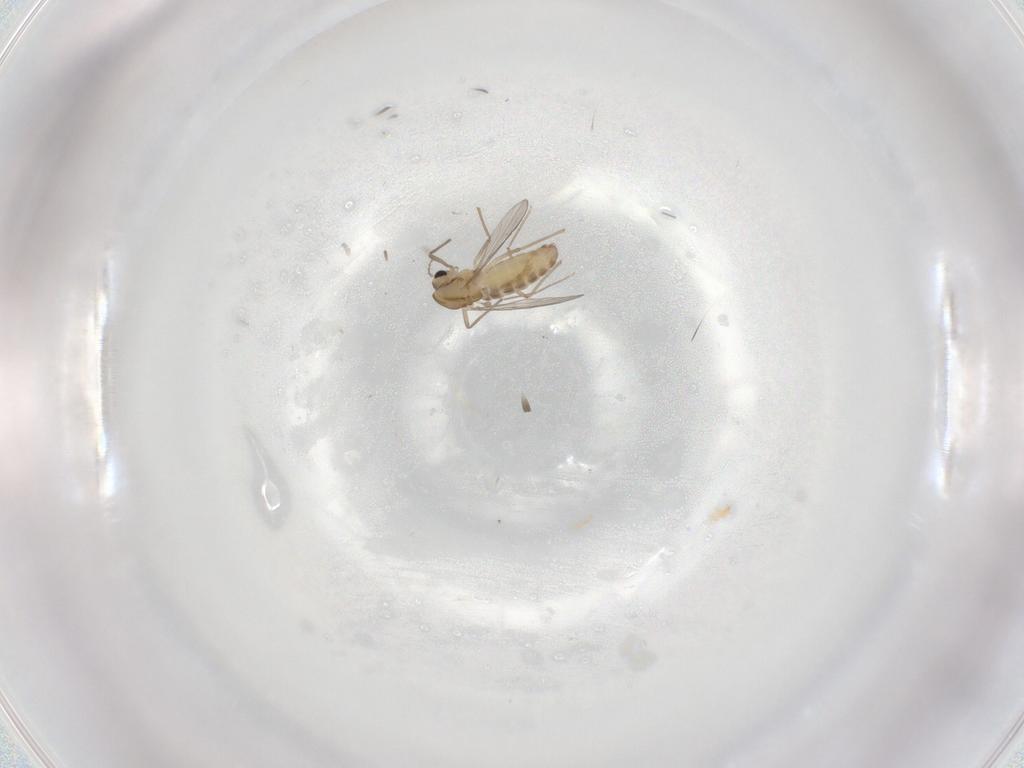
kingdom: Animalia
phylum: Arthropoda
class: Insecta
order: Diptera
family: Chironomidae
